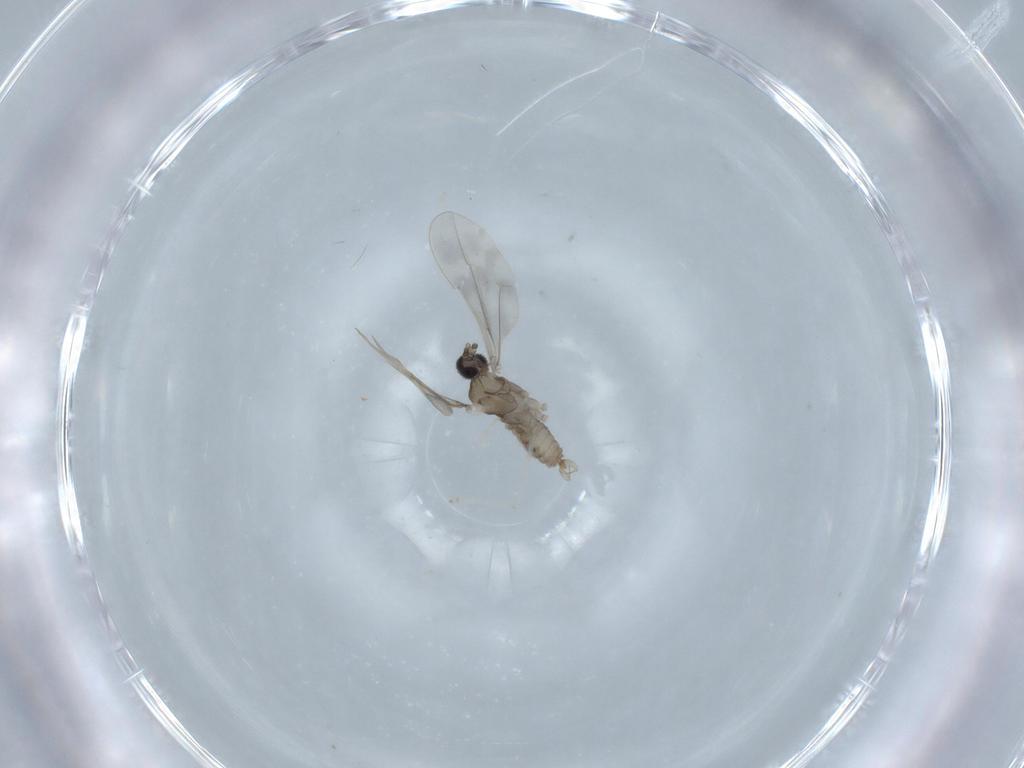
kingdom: Animalia
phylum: Arthropoda
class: Insecta
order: Diptera
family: Cecidomyiidae
